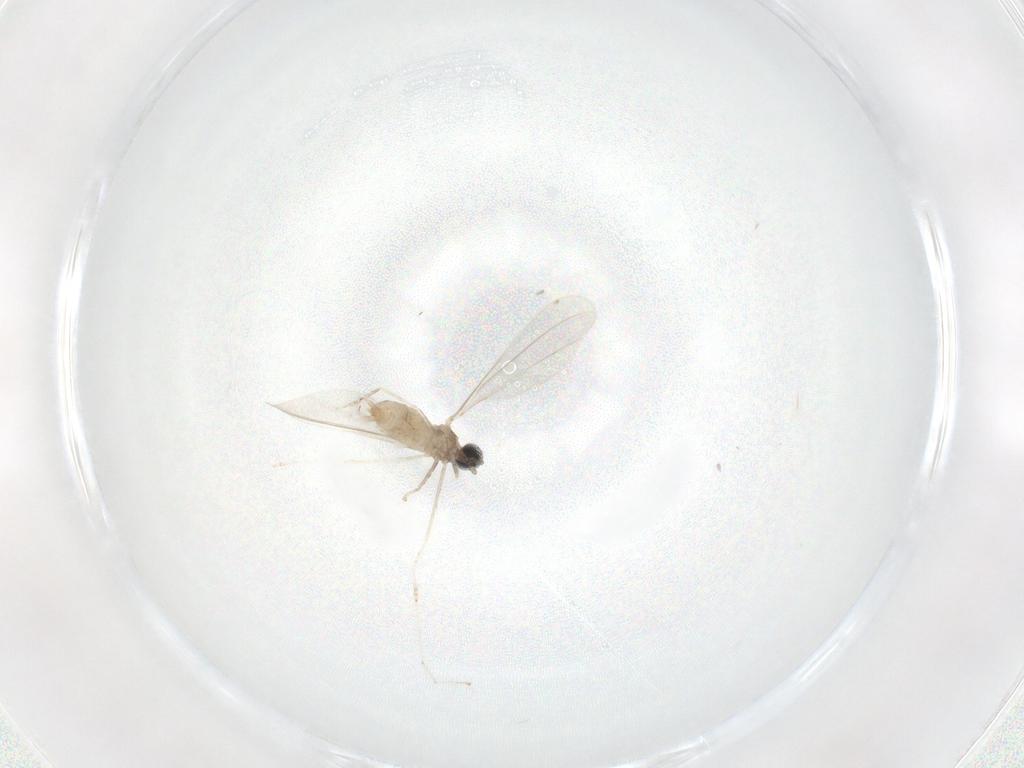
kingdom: Animalia
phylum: Arthropoda
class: Insecta
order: Diptera
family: Cecidomyiidae
